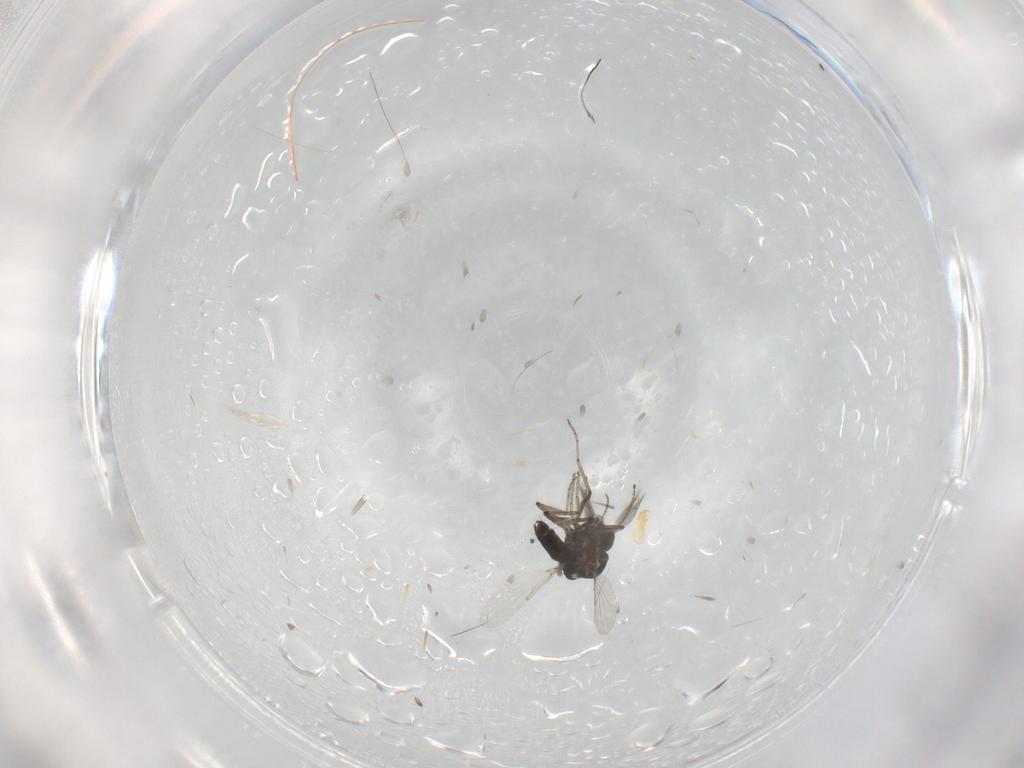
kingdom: Animalia
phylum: Arthropoda
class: Insecta
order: Diptera
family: Ceratopogonidae
